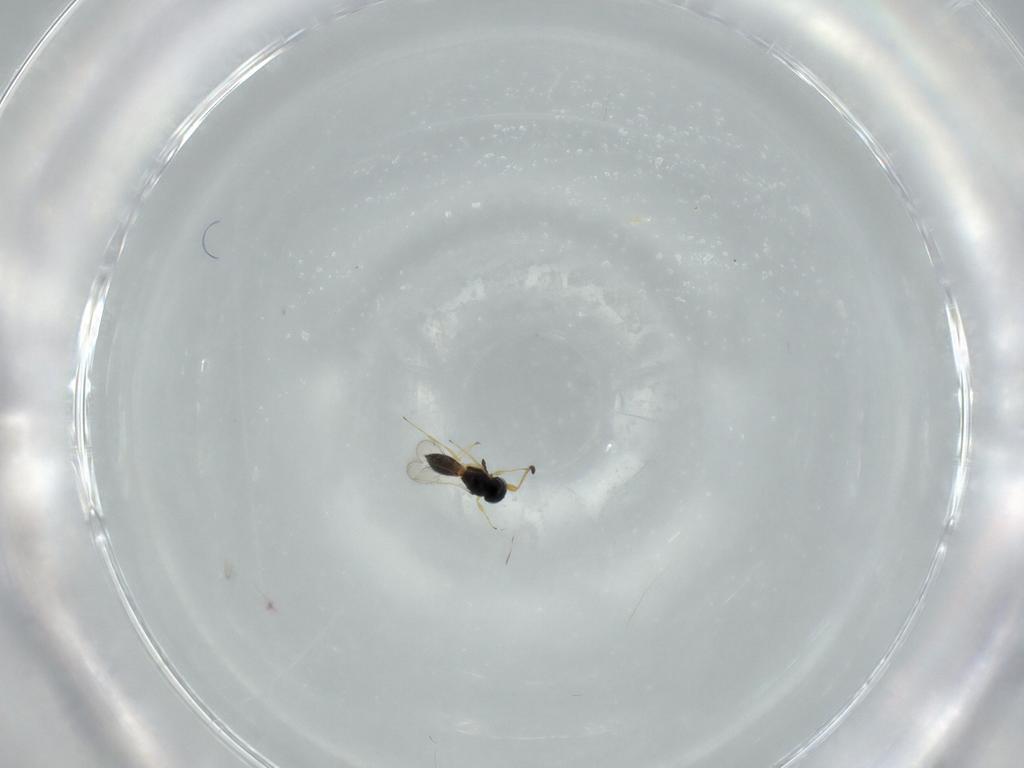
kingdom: Animalia
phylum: Arthropoda
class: Insecta
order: Hymenoptera
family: Scelionidae
